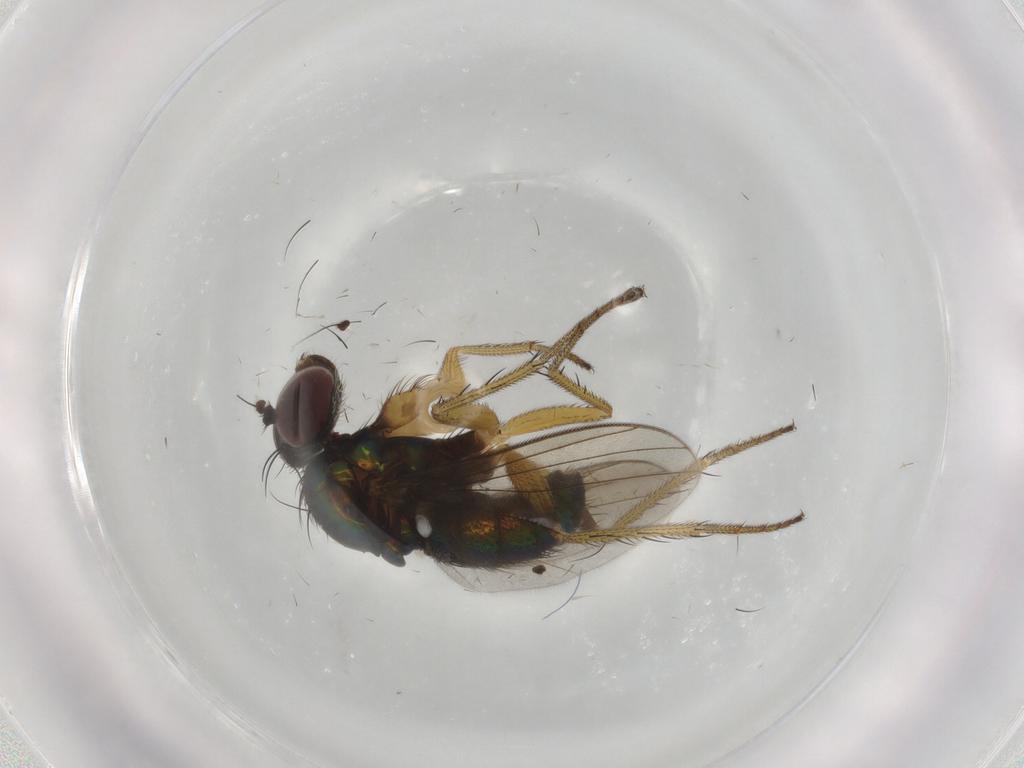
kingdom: Animalia
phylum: Arthropoda
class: Insecta
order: Diptera
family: Dolichopodidae
